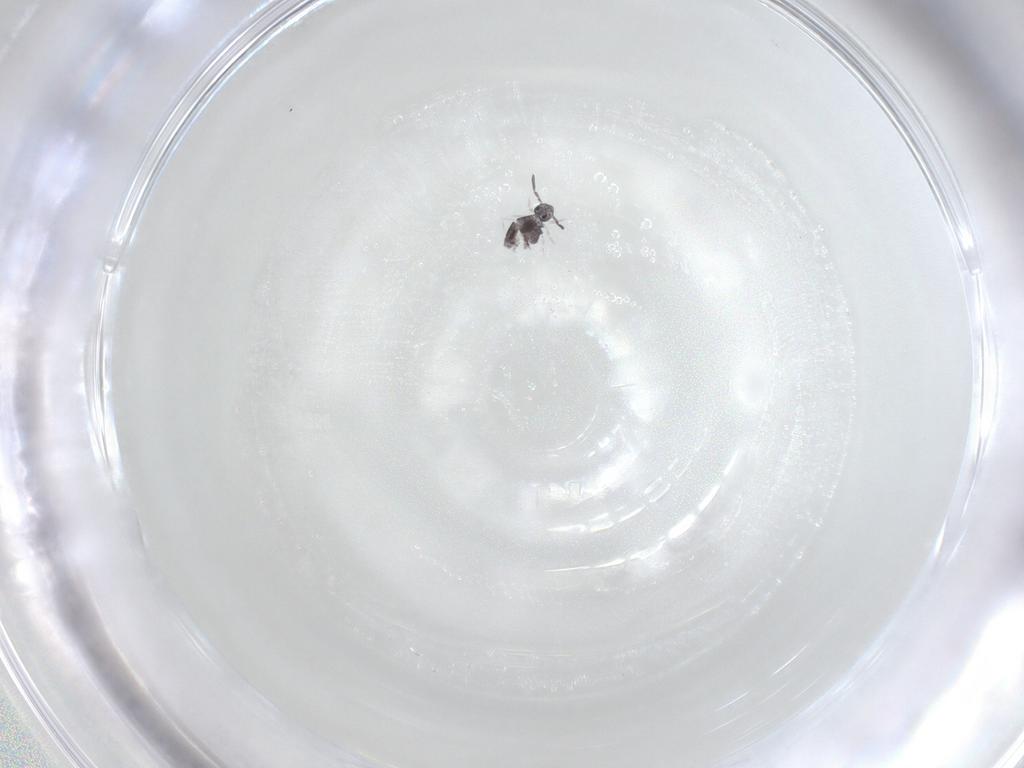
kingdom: Animalia
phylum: Arthropoda
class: Collembola
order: Symphypleona
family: Katiannidae
